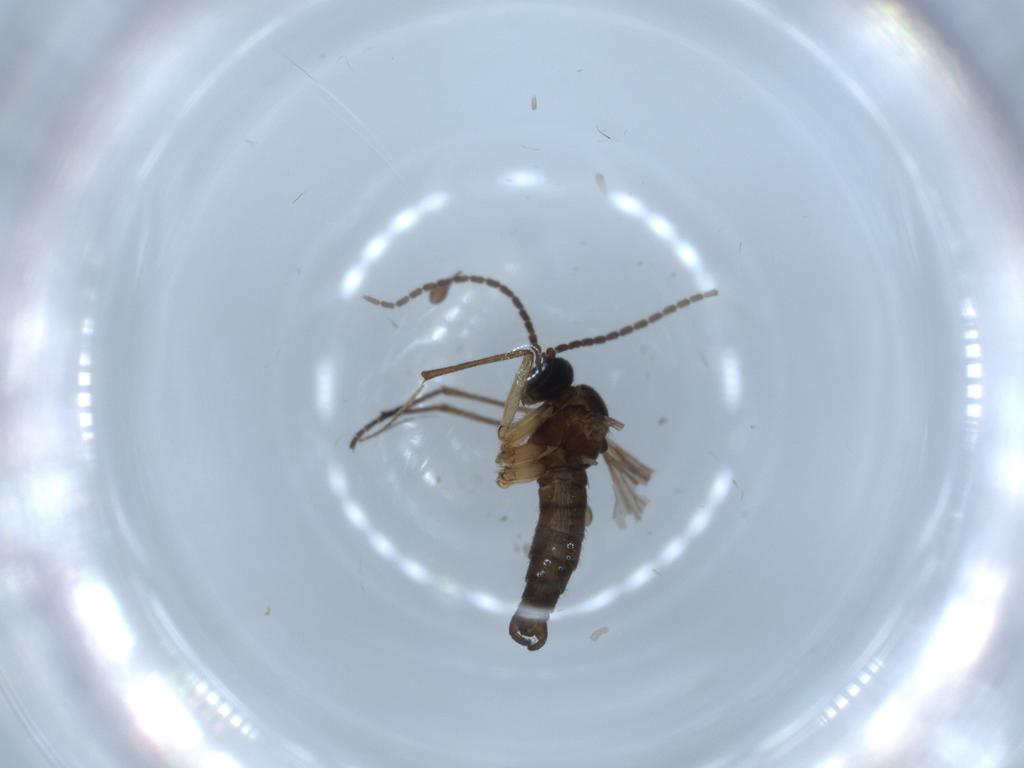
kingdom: Animalia
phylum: Arthropoda
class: Insecta
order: Diptera
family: Sciaridae
